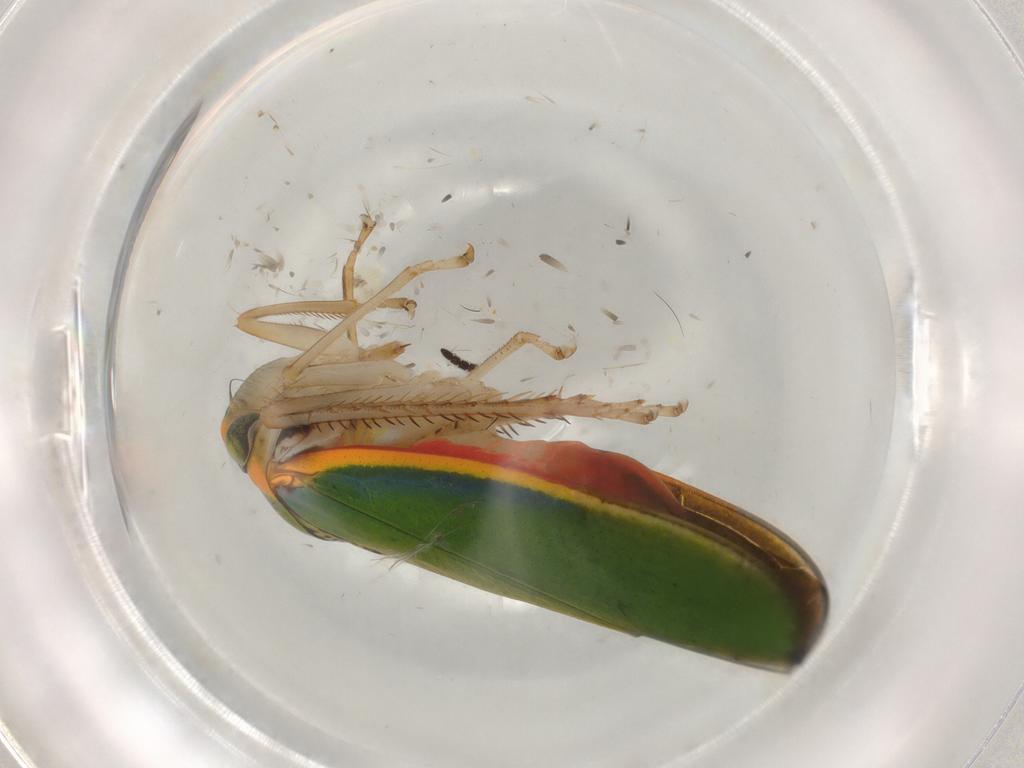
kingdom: Animalia
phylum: Arthropoda
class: Insecta
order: Hemiptera
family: Cicadellidae
